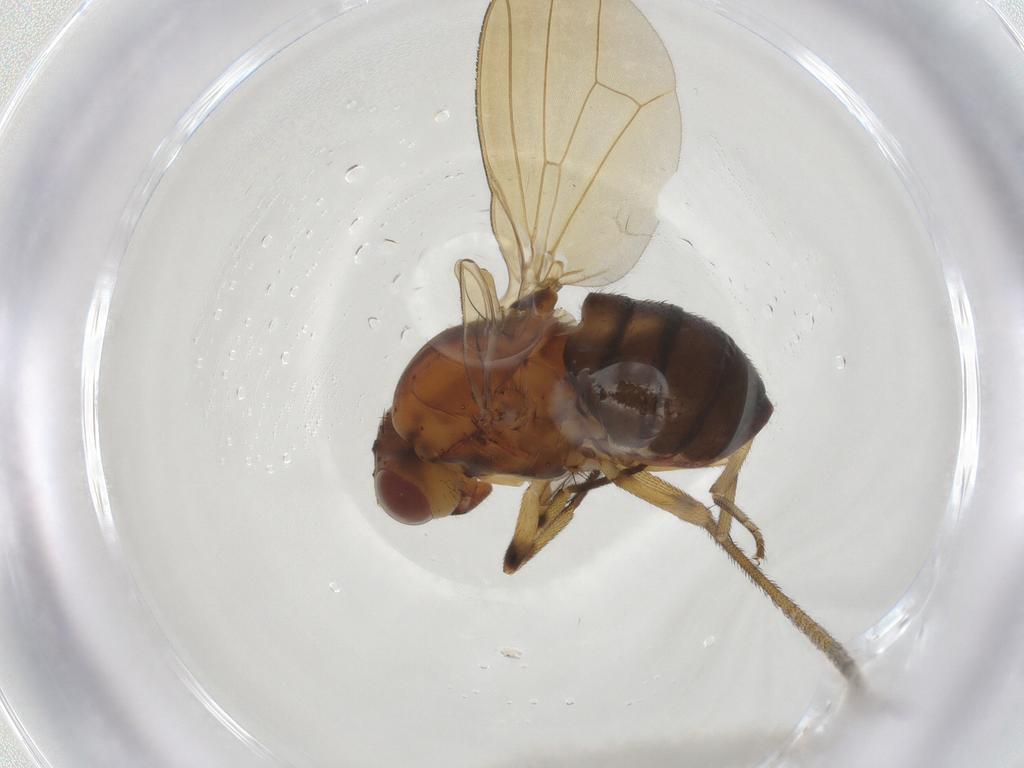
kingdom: Animalia
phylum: Arthropoda
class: Insecta
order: Diptera
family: Tipulidae
